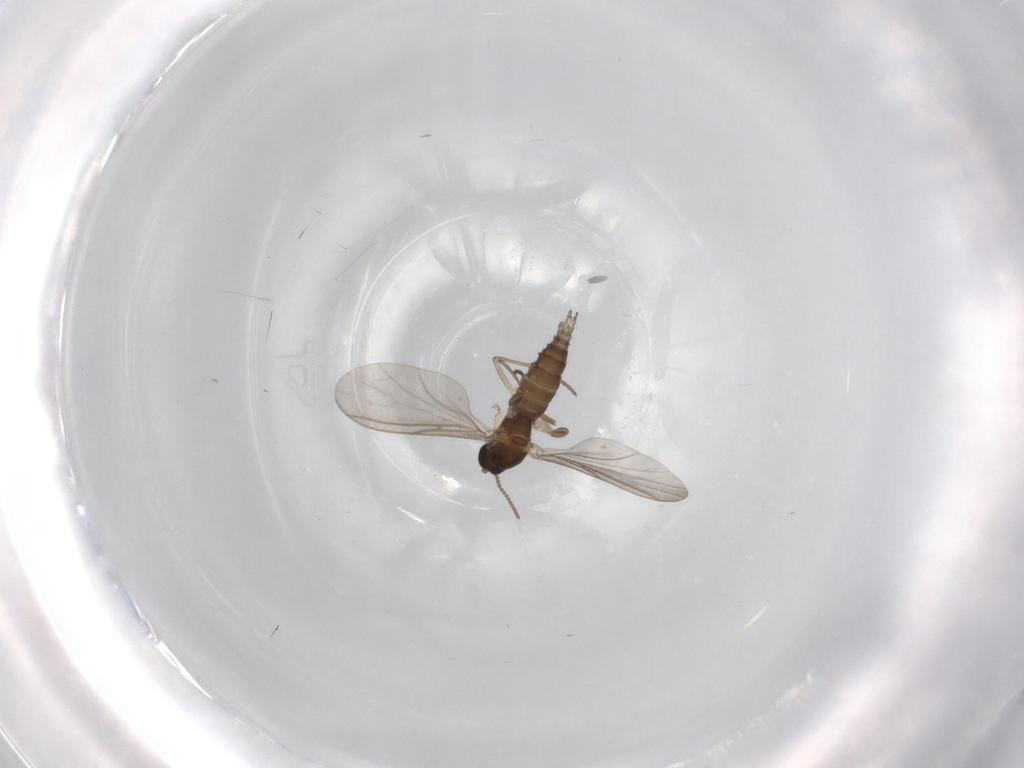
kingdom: Animalia
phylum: Arthropoda
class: Insecta
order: Diptera
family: Sciaridae
